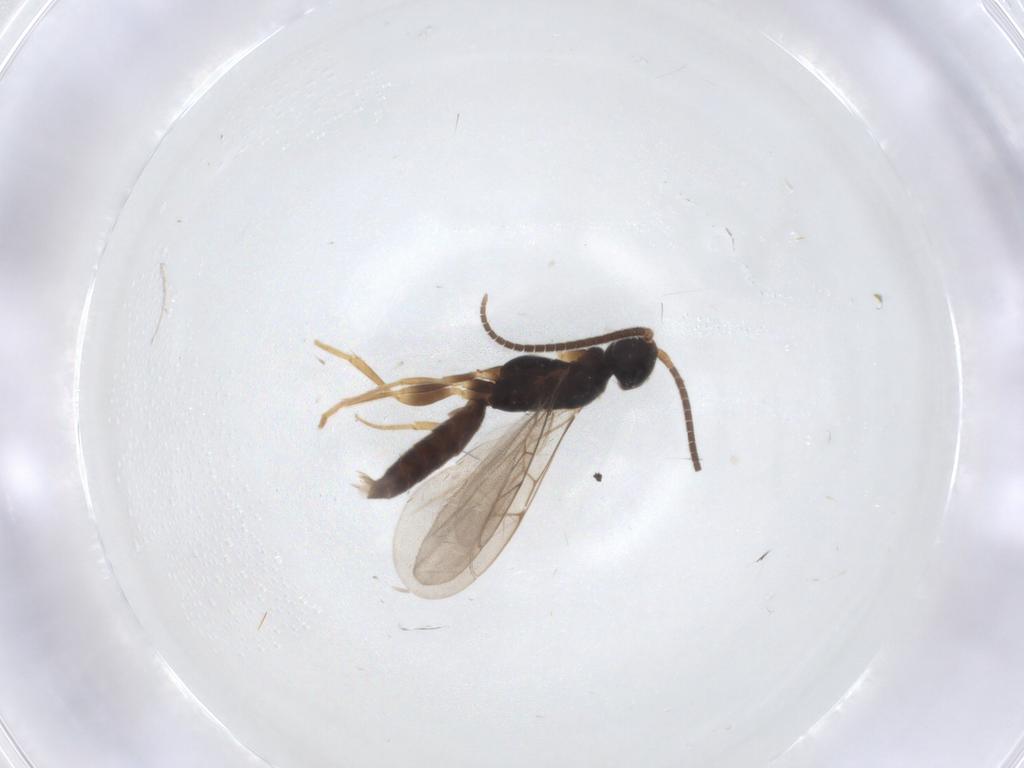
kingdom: Animalia
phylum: Arthropoda
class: Insecta
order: Hymenoptera
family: Sclerogibbidae
